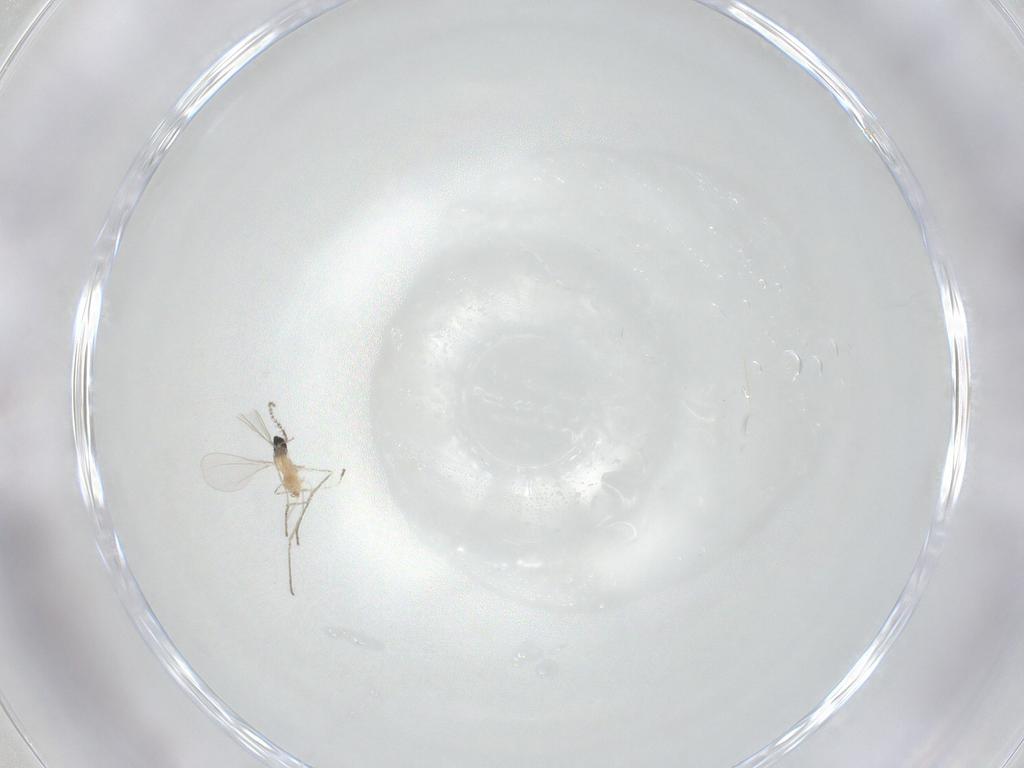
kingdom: Animalia
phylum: Arthropoda
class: Insecta
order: Diptera
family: Cecidomyiidae
